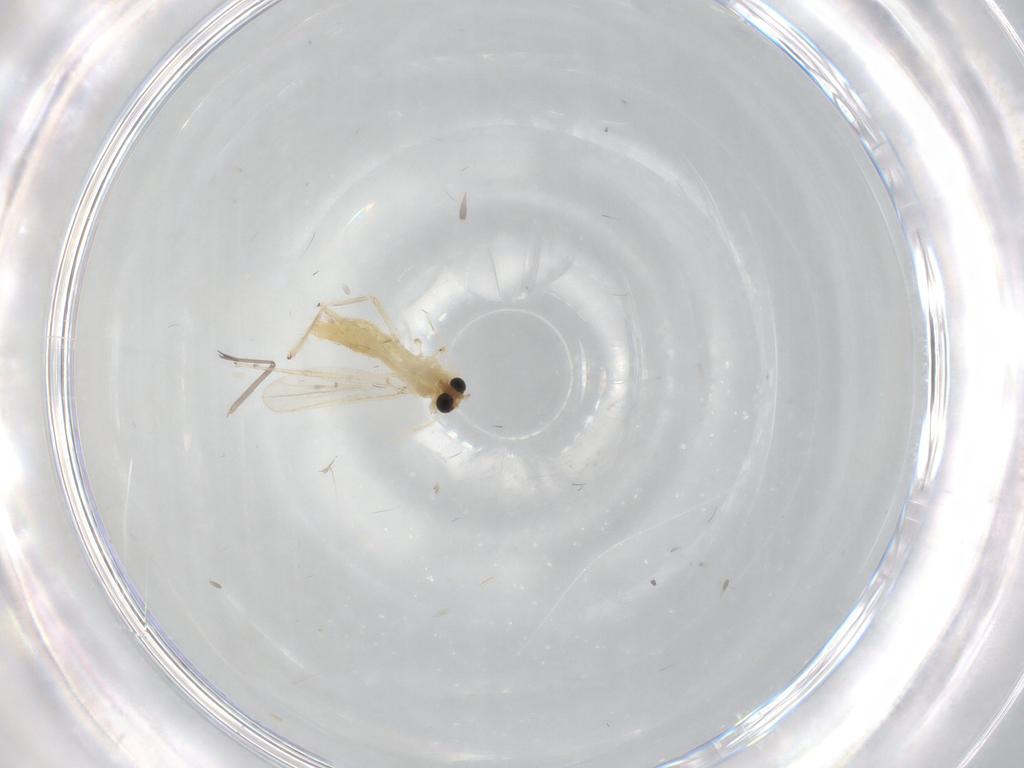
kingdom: Animalia
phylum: Arthropoda
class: Insecta
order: Diptera
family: Chironomidae
